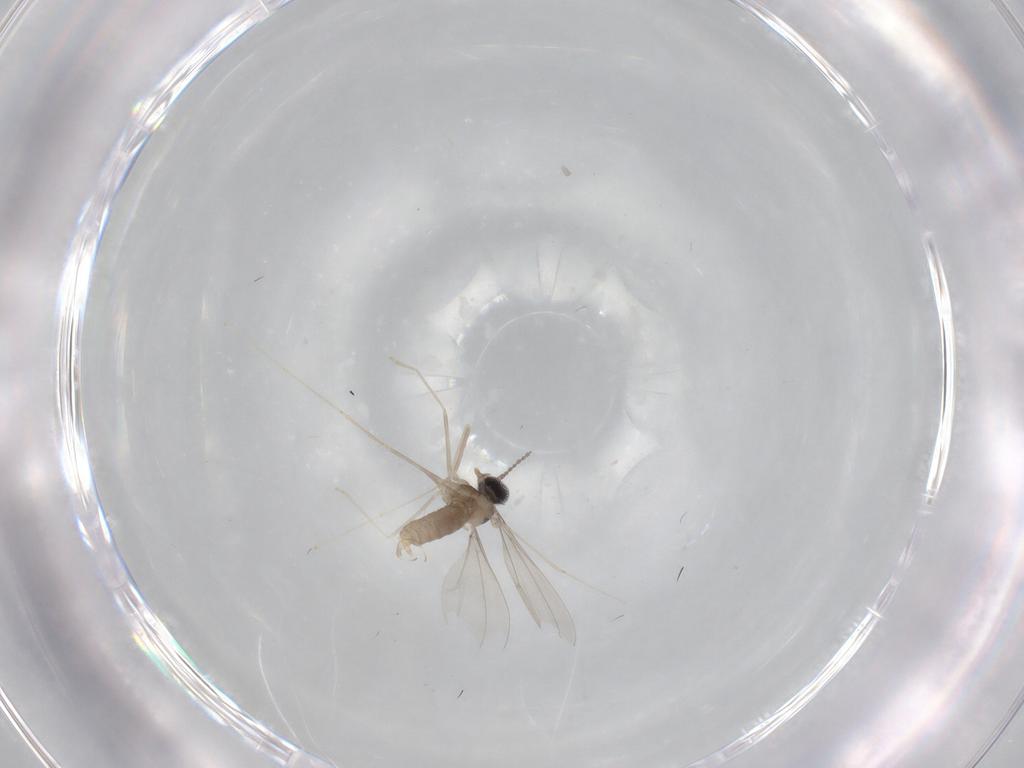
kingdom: Animalia
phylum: Arthropoda
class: Insecta
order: Diptera
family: Cecidomyiidae
